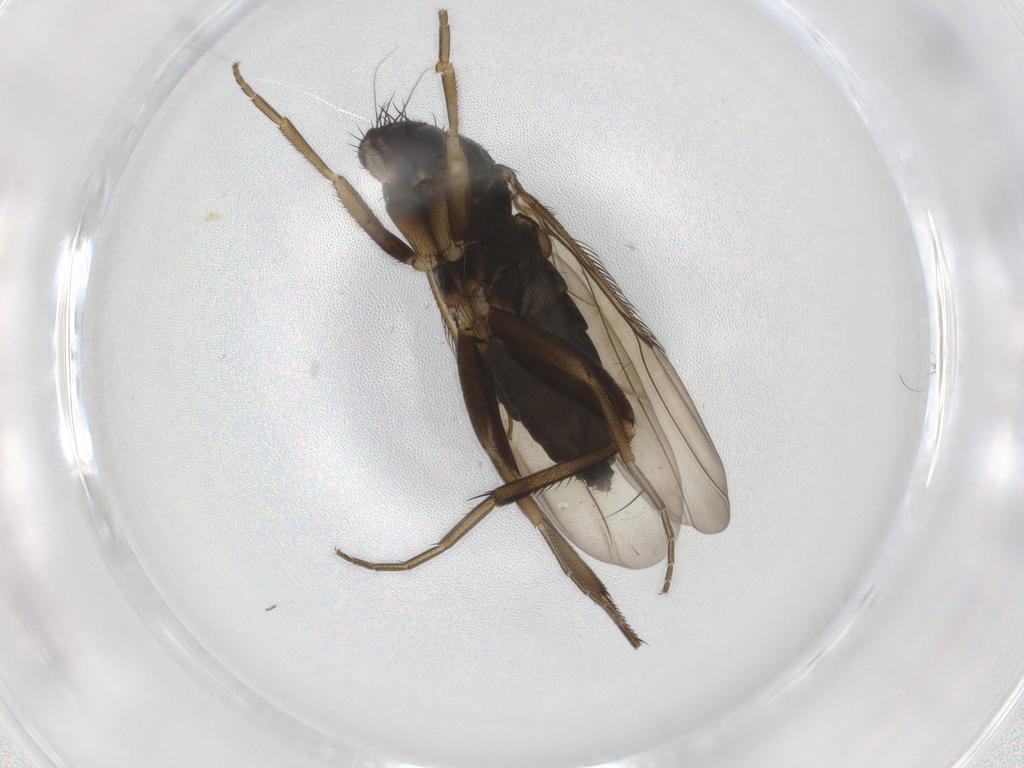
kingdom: Animalia
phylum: Arthropoda
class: Insecta
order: Diptera
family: Phoridae
